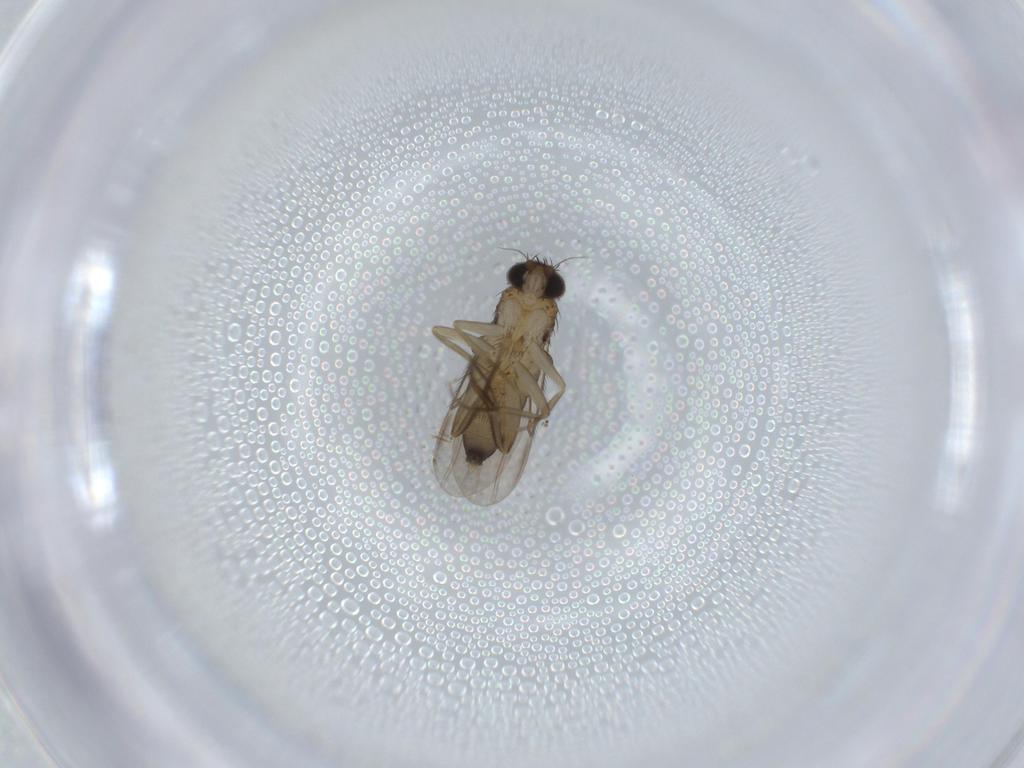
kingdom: Animalia
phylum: Arthropoda
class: Insecta
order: Diptera
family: Phoridae
